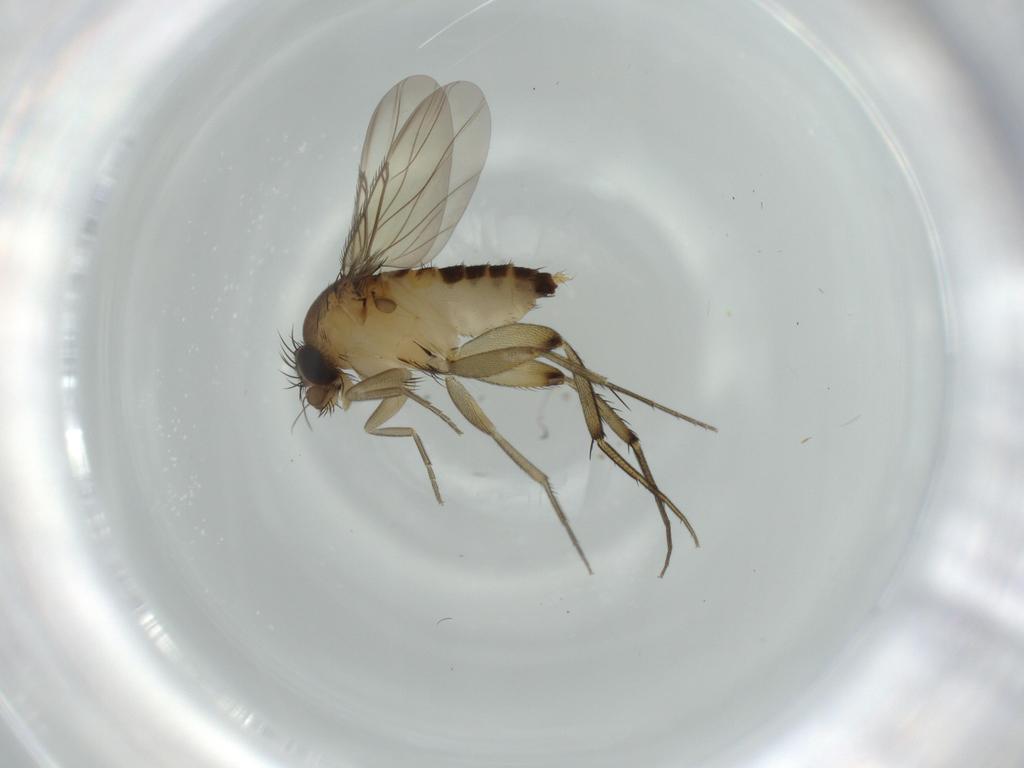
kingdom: Animalia
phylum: Arthropoda
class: Insecta
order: Diptera
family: Phoridae
